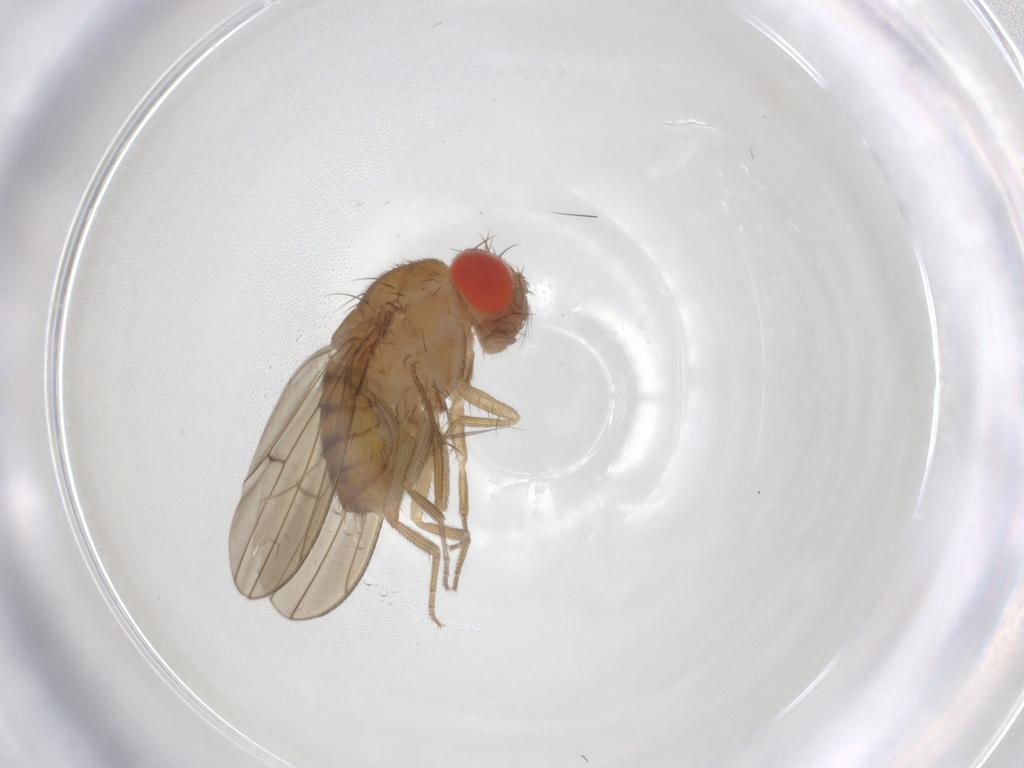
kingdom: Animalia
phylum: Arthropoda
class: Insecta
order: Diptera
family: Drosophilidae
